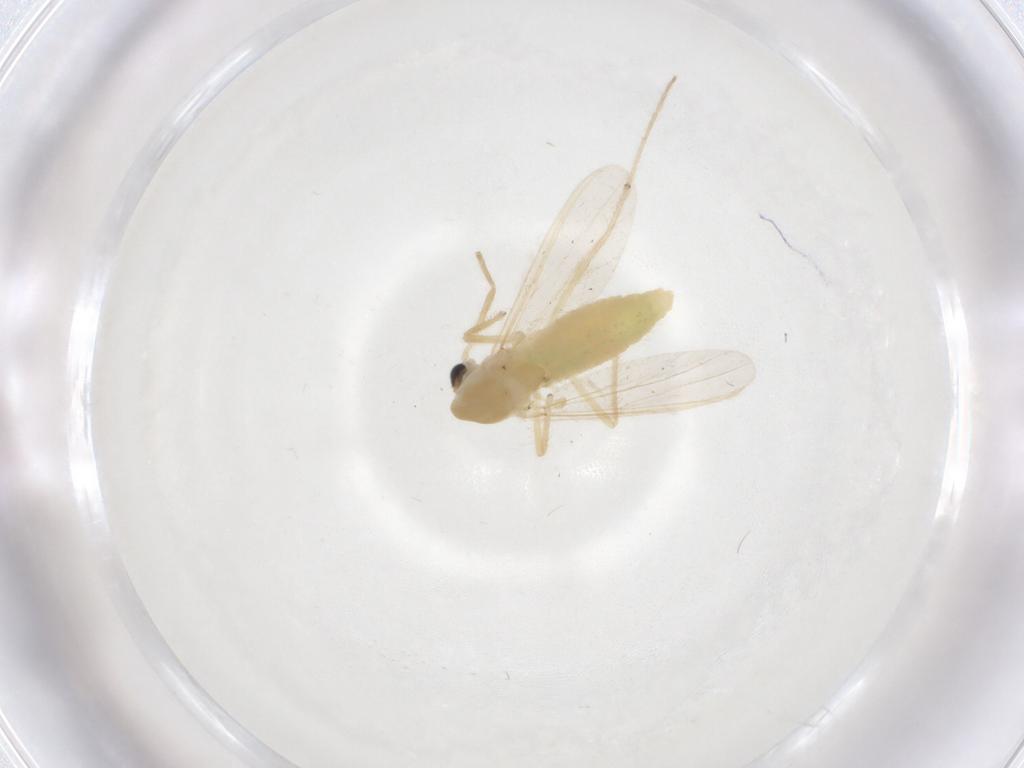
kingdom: Animalia
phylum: Arthropoda
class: Insecta
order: Diptera
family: Chironomidae
